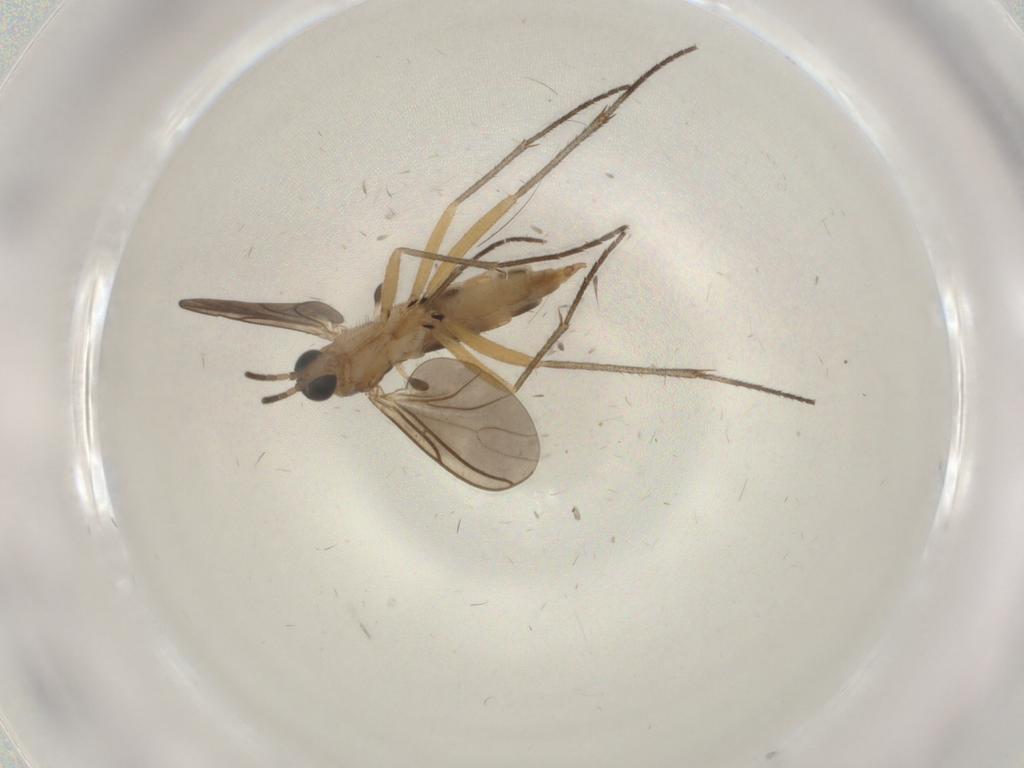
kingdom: Animalia
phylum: Arthropoda
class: Insecta
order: Diptera
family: Sciaridae
